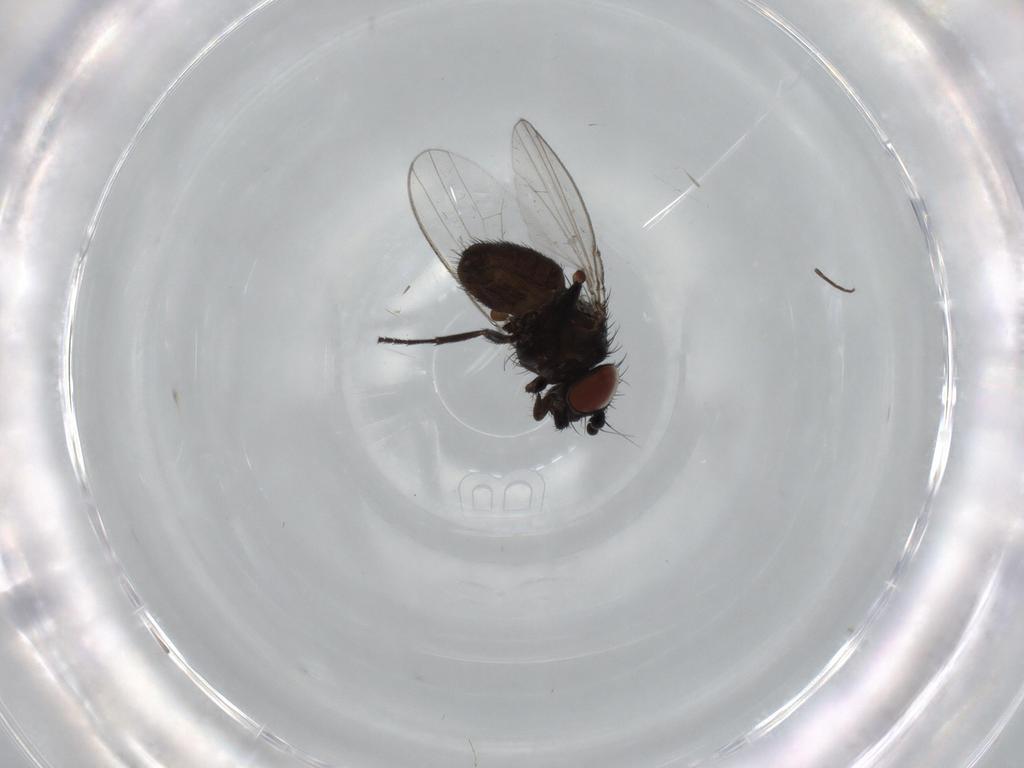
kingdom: Animalia
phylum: Arthropoda
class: Insecta
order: Diptera
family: Milichiidae
